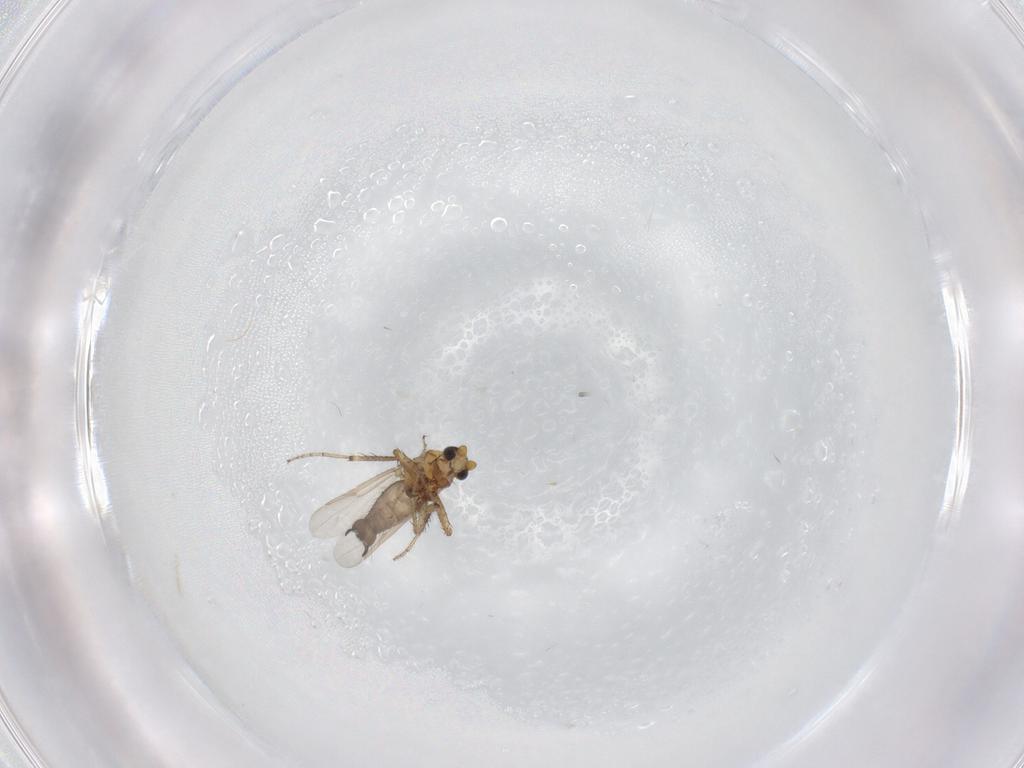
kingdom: Animalia
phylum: Arthropoda
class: Insecta
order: Diptera
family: Ceratopogonidae
